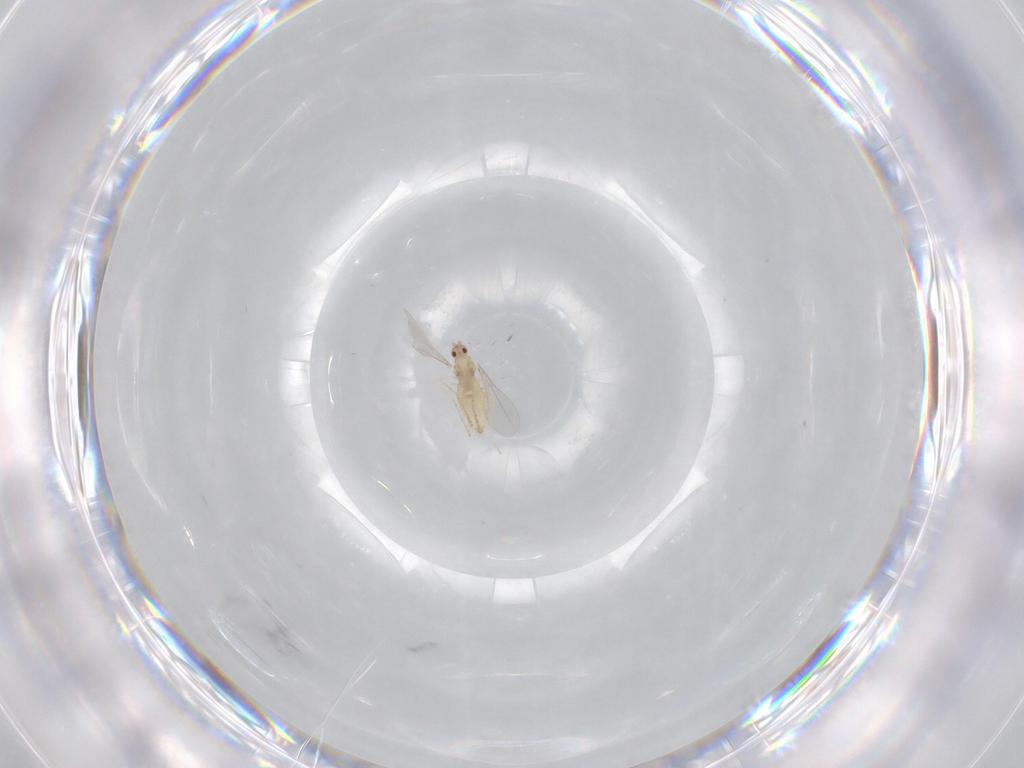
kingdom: Animalia
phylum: Arthropoda
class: Insecta
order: Diptera
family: Cecidomyiidae
